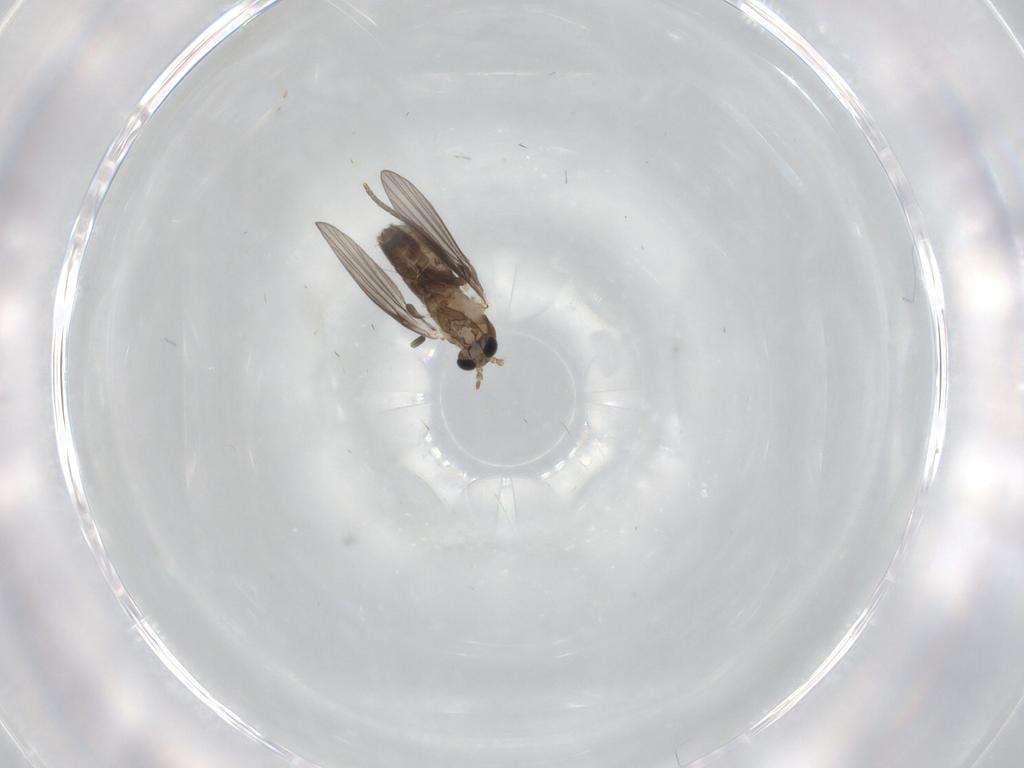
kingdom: Animalia
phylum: Arthropoda
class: Insecta
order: Diptera
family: Psychodidae
